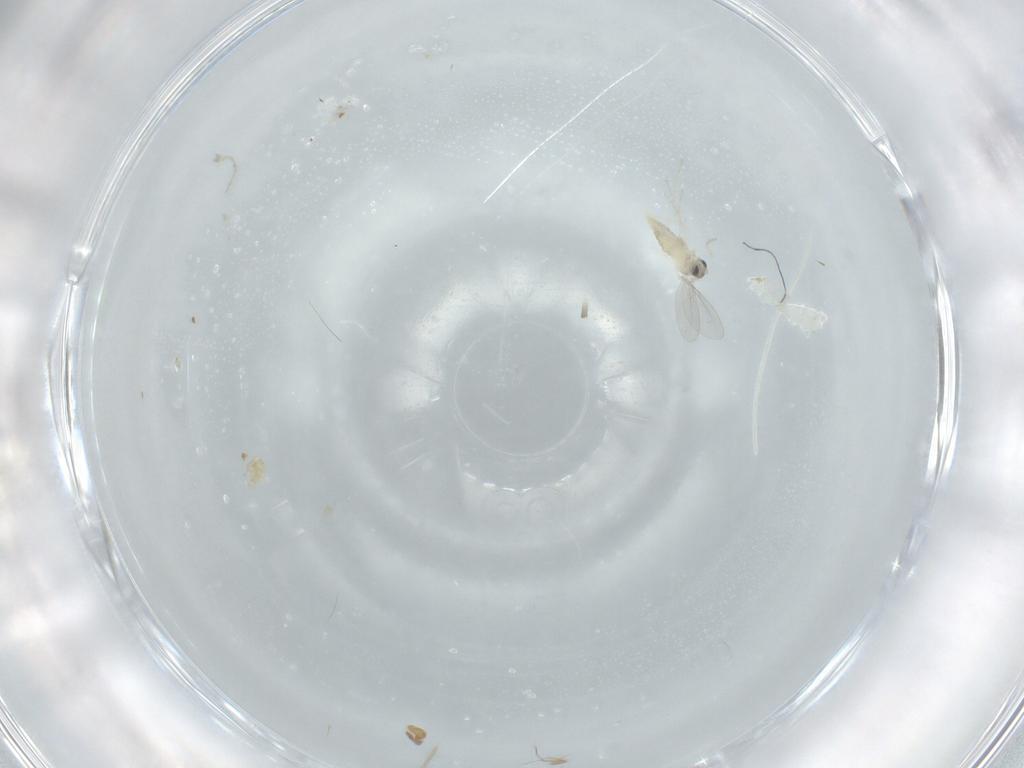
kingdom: Animalia
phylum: Arthropoda
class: Insecta
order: Diptera
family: Cecidomyiidae
